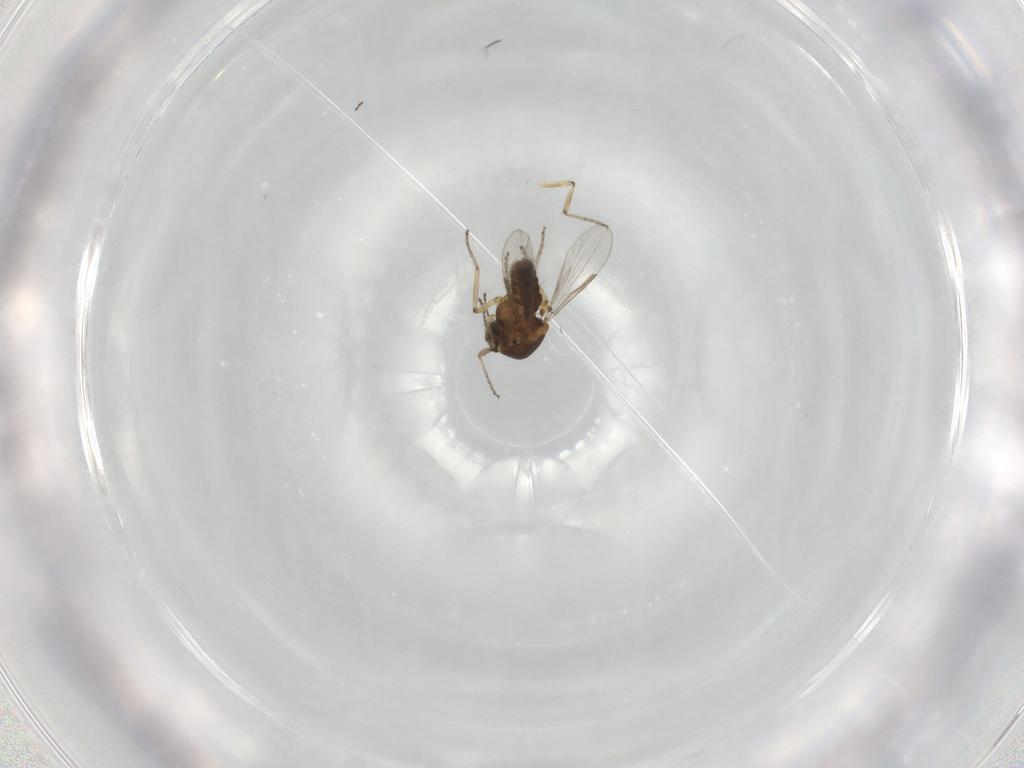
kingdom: Animalia
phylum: Arthropoda
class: Insecta
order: Diptera
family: Ceratopogonidae
